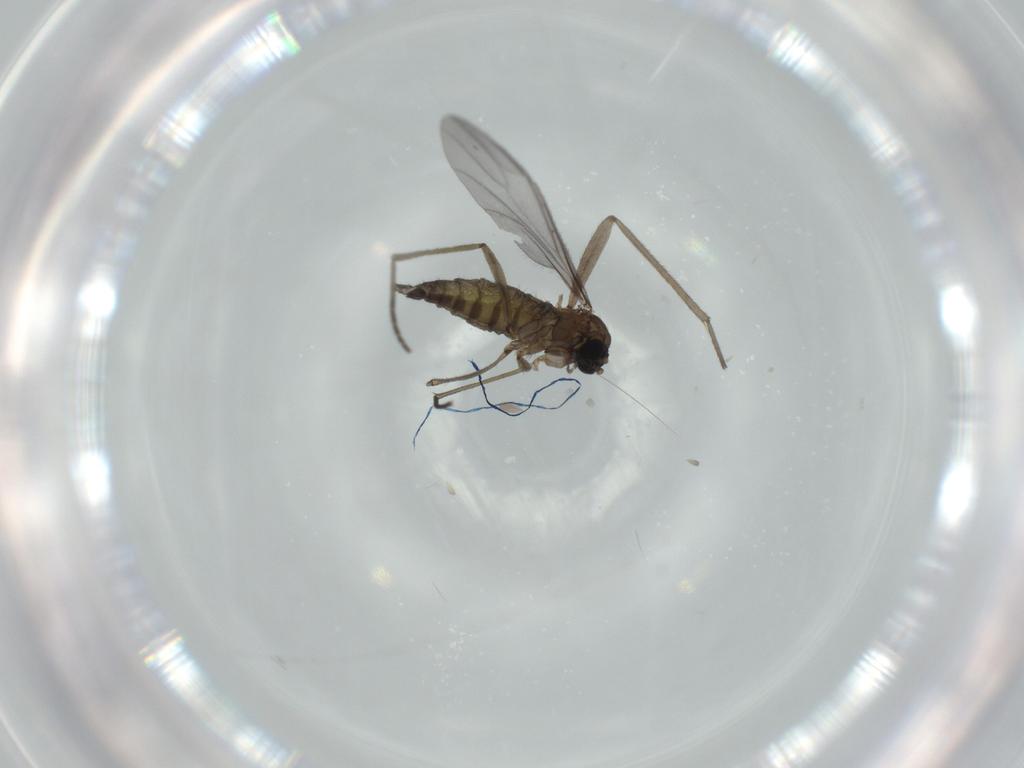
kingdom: Animalia
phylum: Arthropoda
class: Insecta
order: Diptera
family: Sciaridae
